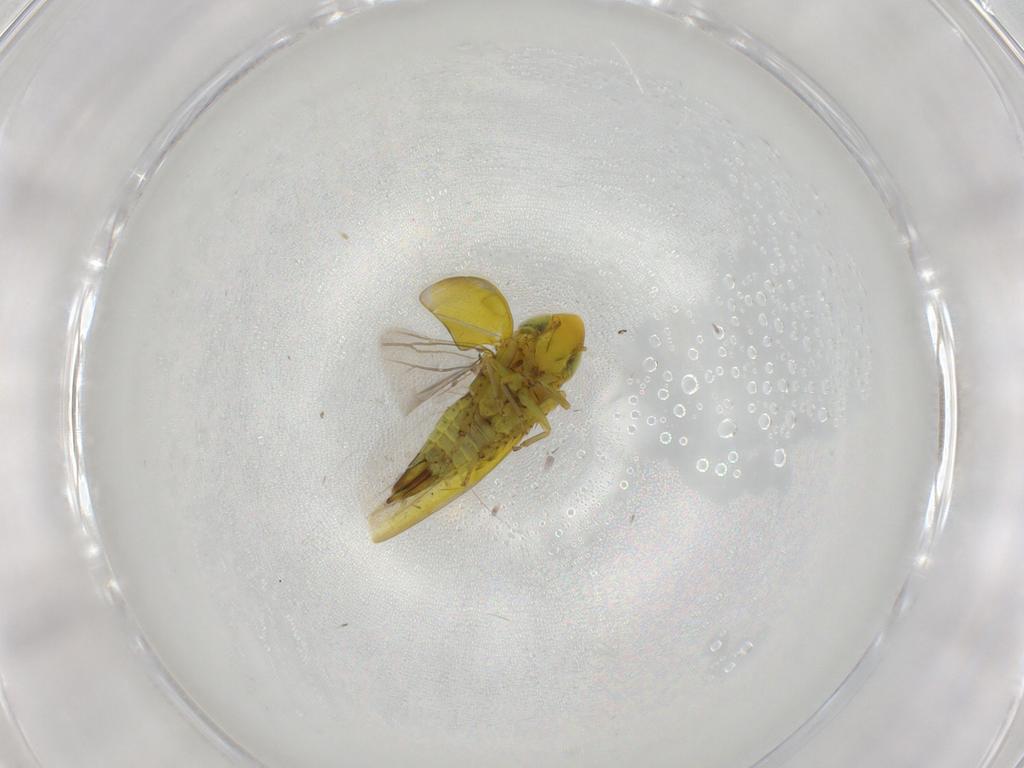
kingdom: Animalia
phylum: Arthropoda
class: Insecta
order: Hemiptera
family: Cicadellidae
